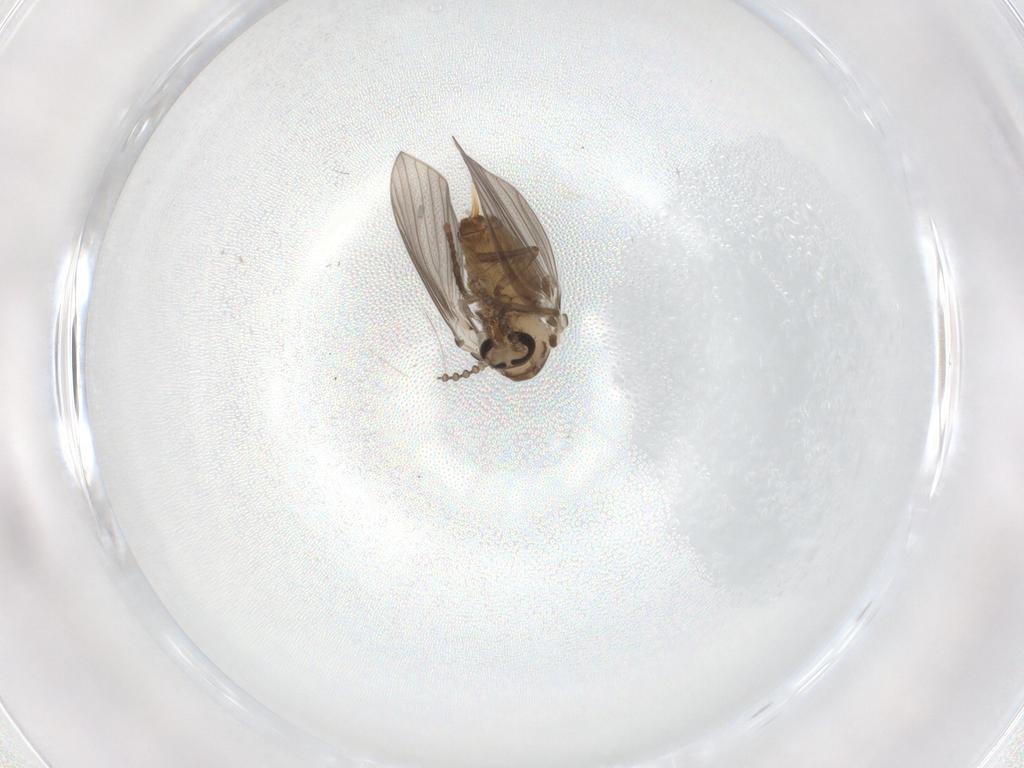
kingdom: Animalia
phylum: Arthropoda
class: Insecta
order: Diptera
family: Psychodidae
